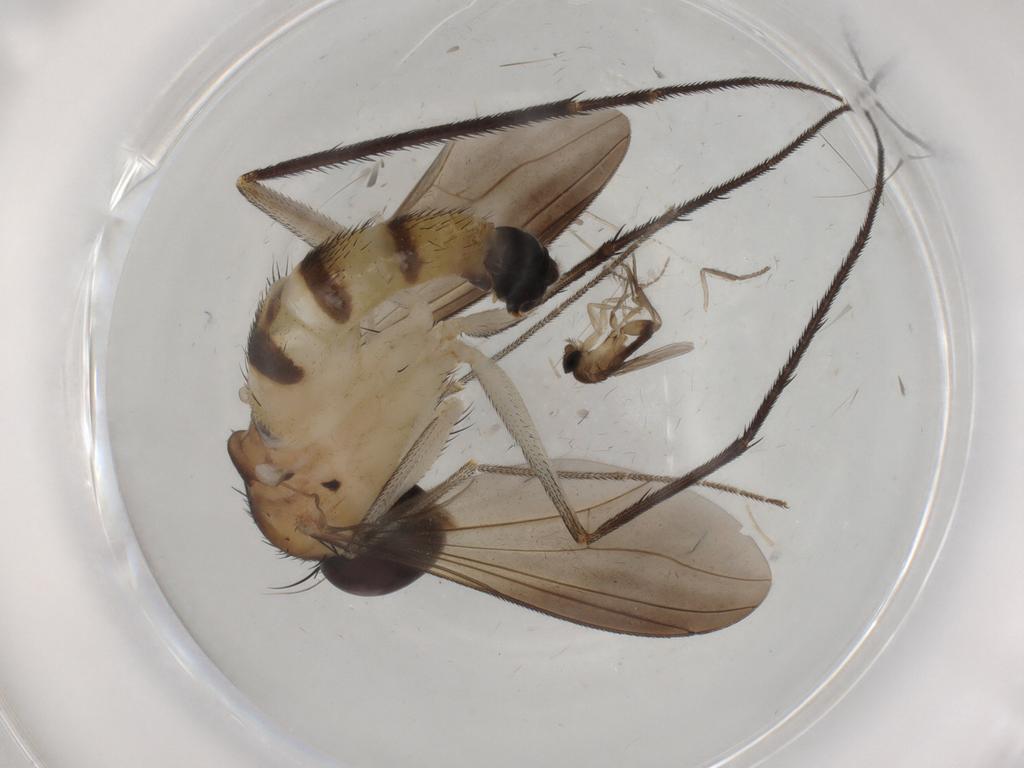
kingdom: Animalia
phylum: Arthropoda
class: Insecta
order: Diptera
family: Dolichopodidae
